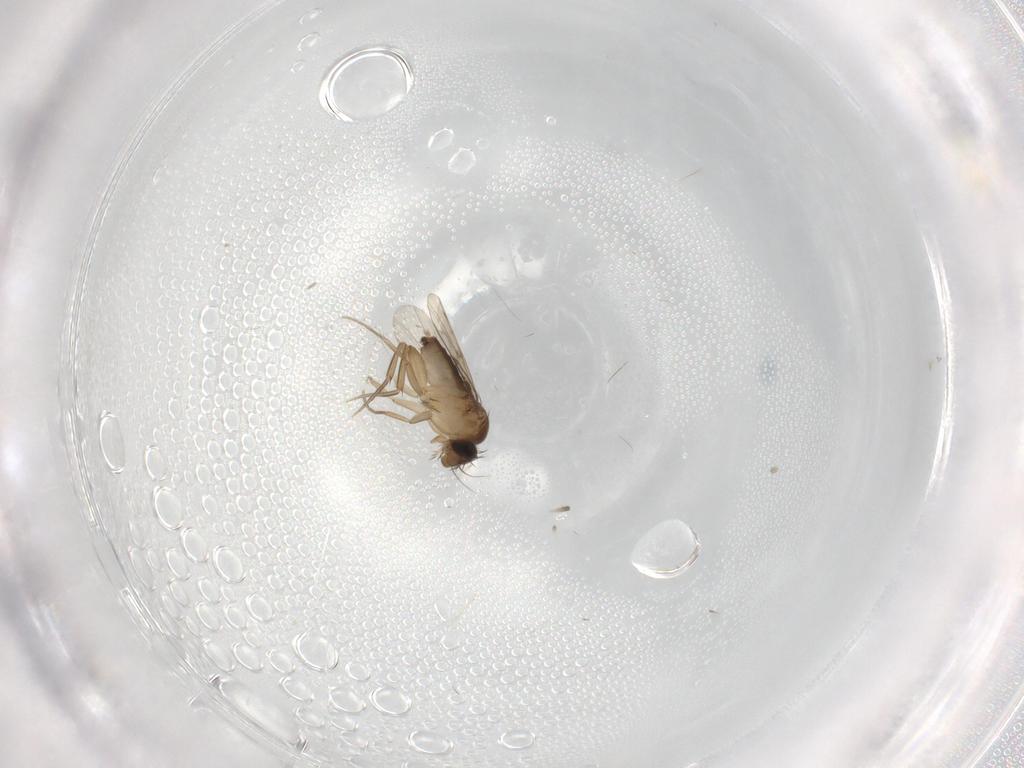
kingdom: Animalia
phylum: Arthropoda
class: Insecta
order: Diptera
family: Phoridae
